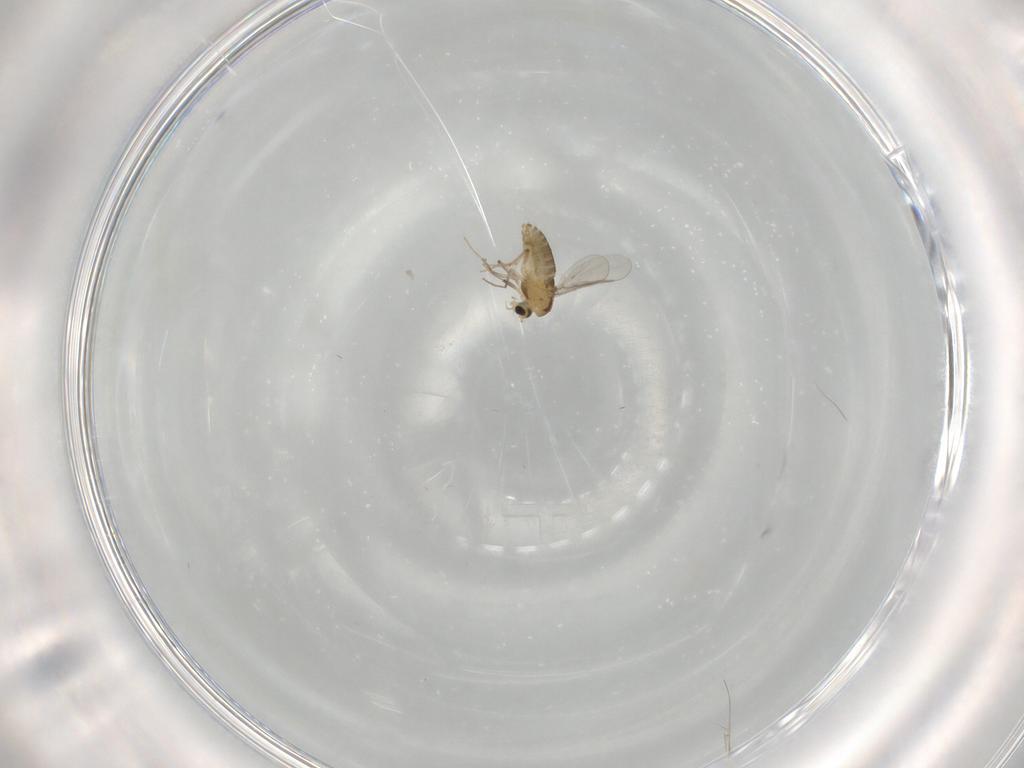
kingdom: Animalia
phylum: Arthropoda
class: Insecta
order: Diptera
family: Chironomidae
